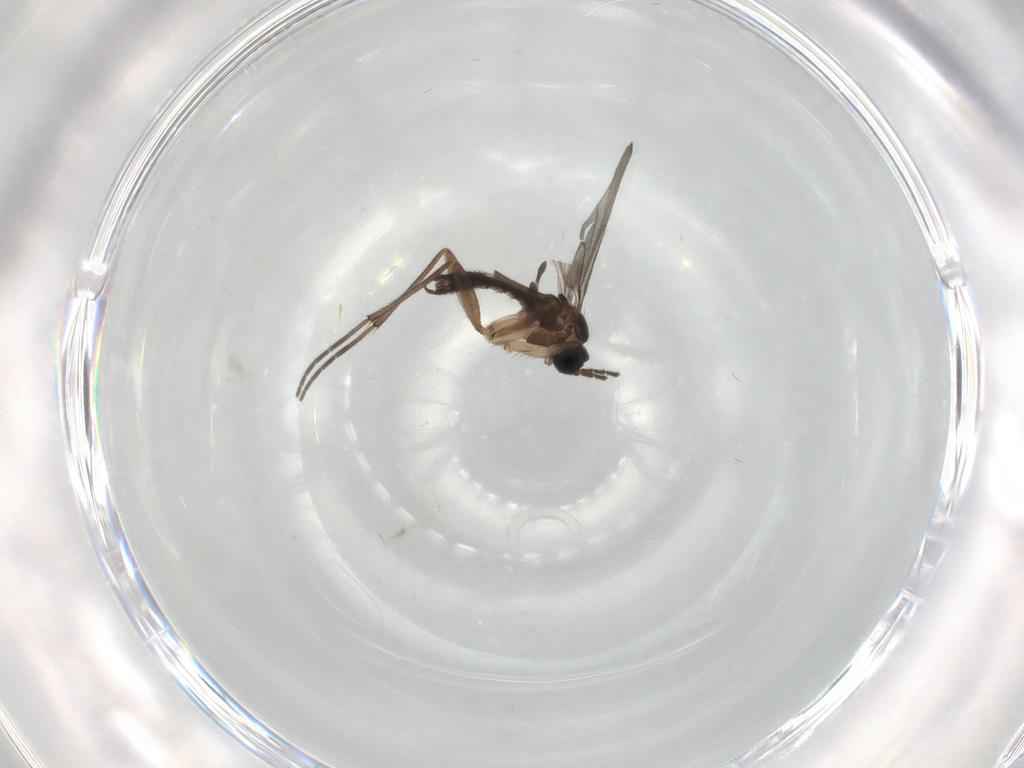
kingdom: Animalia
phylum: Arthropoda
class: Insecta
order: Diptera
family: Sciaridae
